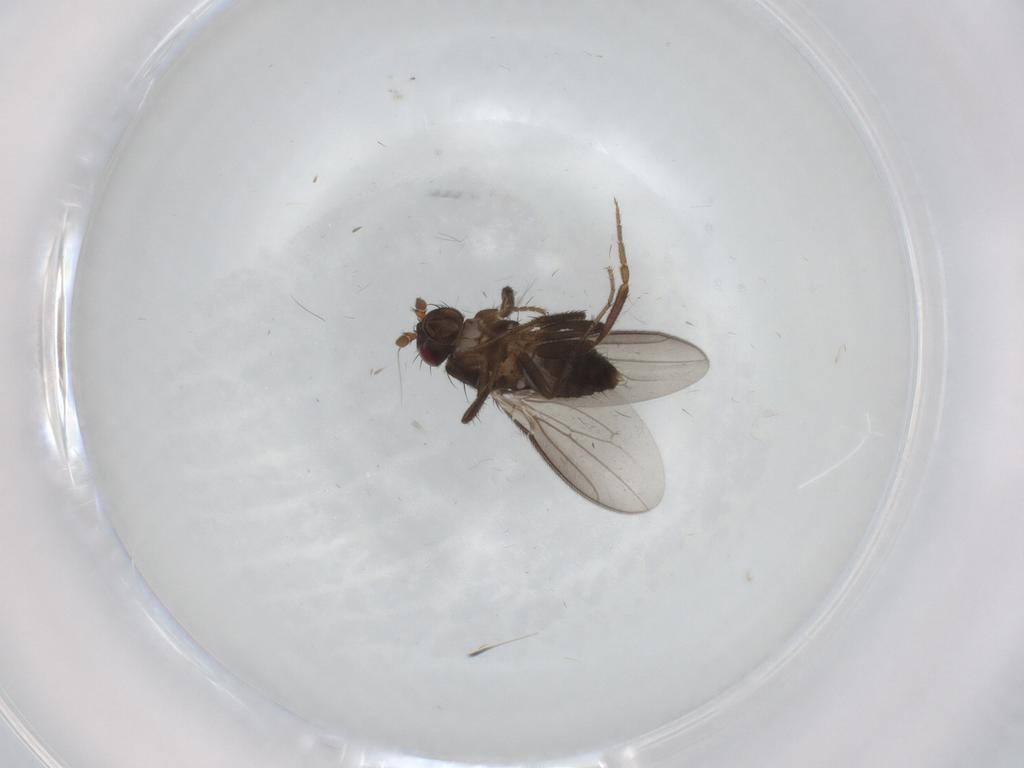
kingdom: Animalia
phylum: Arthropoda
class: Insecta
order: Diptera
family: Sphaeroceridae
